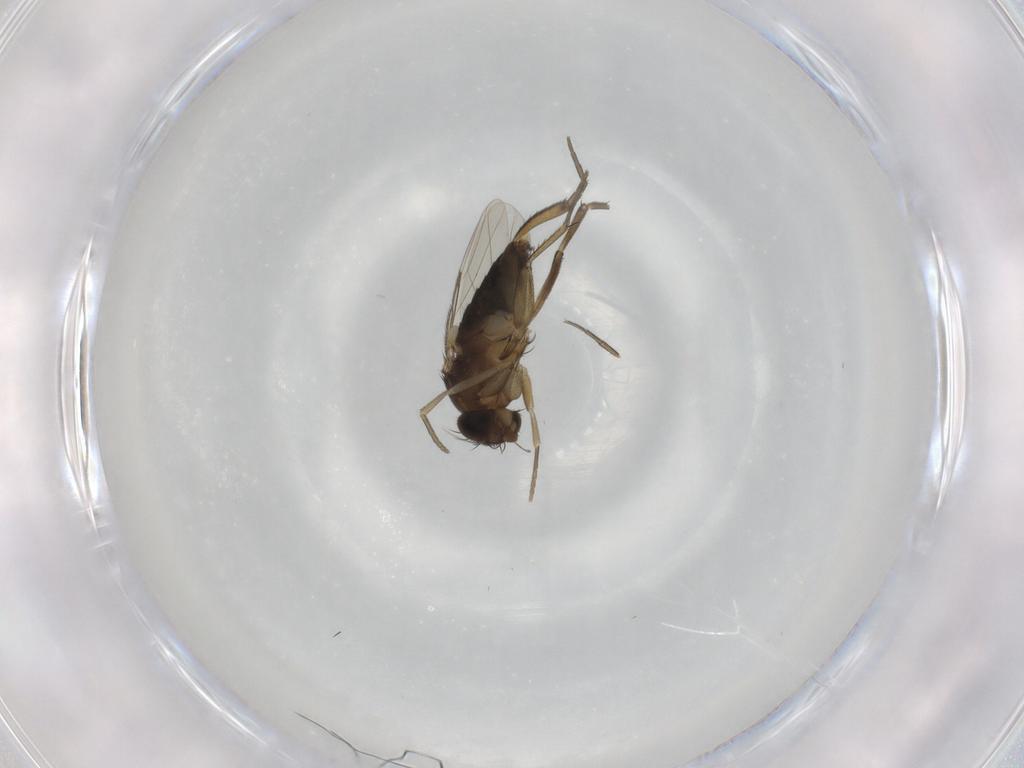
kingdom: Animalia
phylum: Arthropoda
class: Insecta
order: Diptera
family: Phoridae
